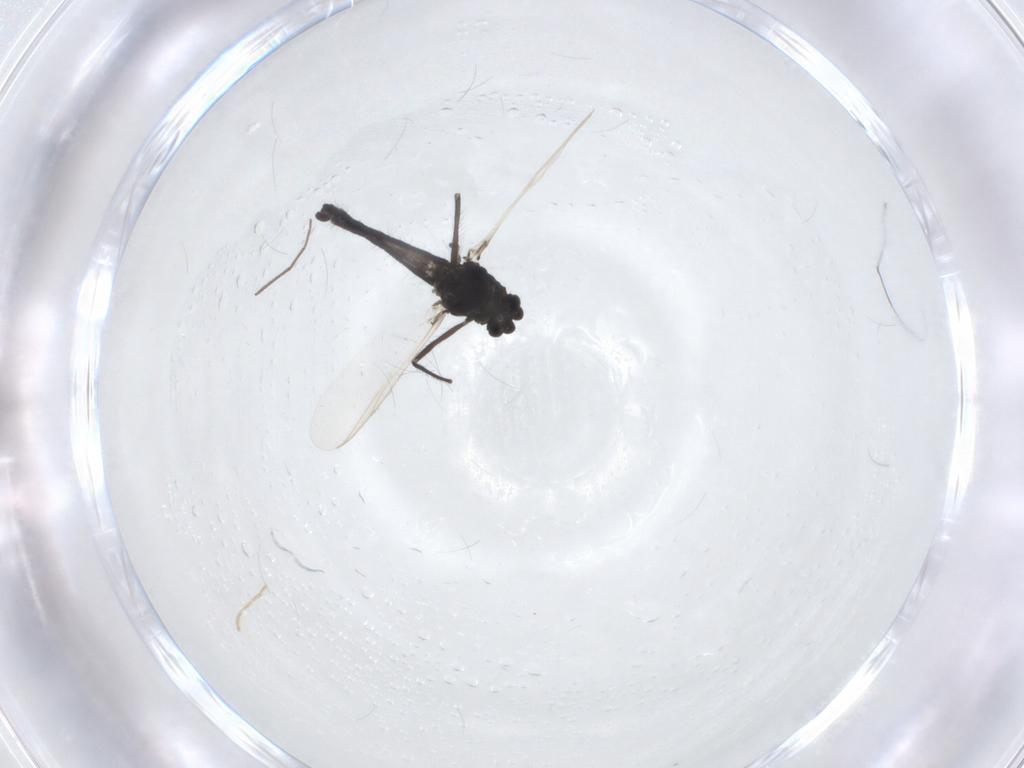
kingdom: Animalia
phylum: Arthropoda
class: Insecta
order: Diptera
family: Chironomidae
